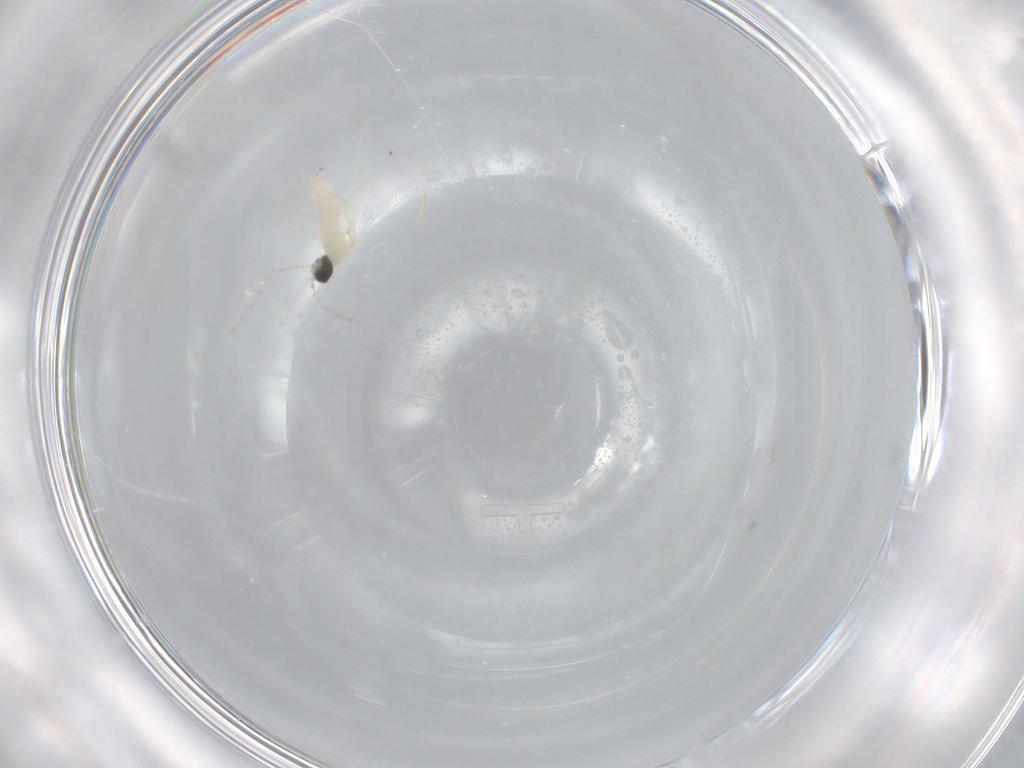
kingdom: Animalia
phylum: Arthropoda
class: Insecta
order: Diptera
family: Cecidomyiidae
